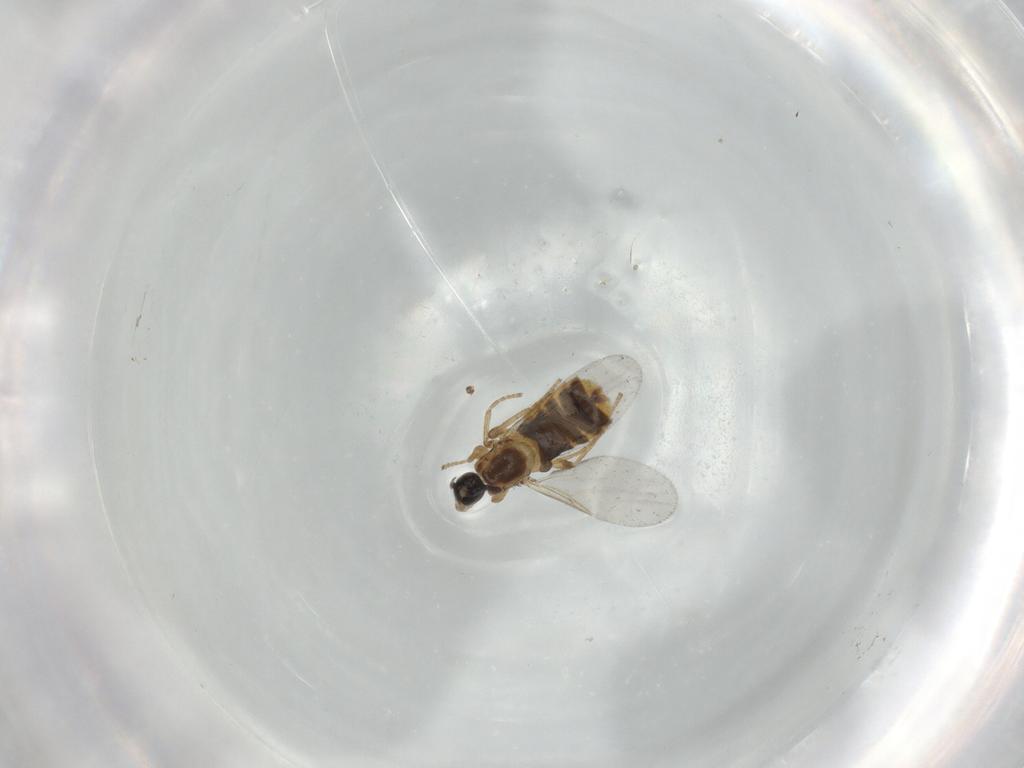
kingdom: Animalia
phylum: Arthropoda
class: Insecta
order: Diptera
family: Scatopsidae
